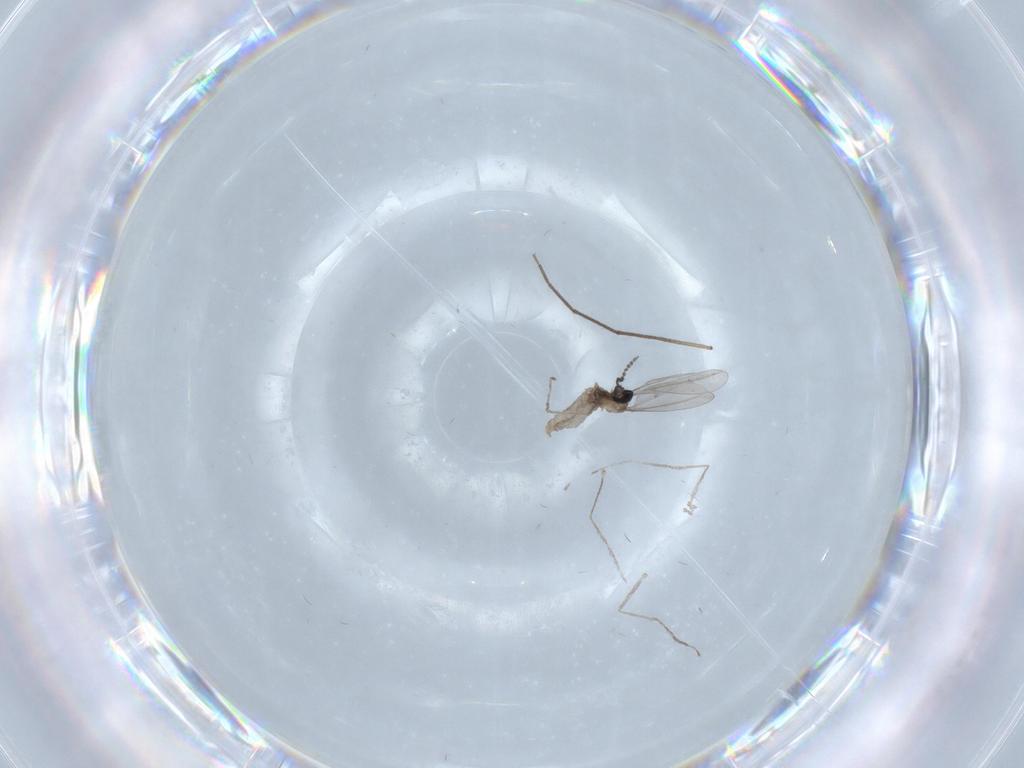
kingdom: Animalia
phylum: Arthropoda
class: Insecta
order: Diptera
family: Chironomidae
